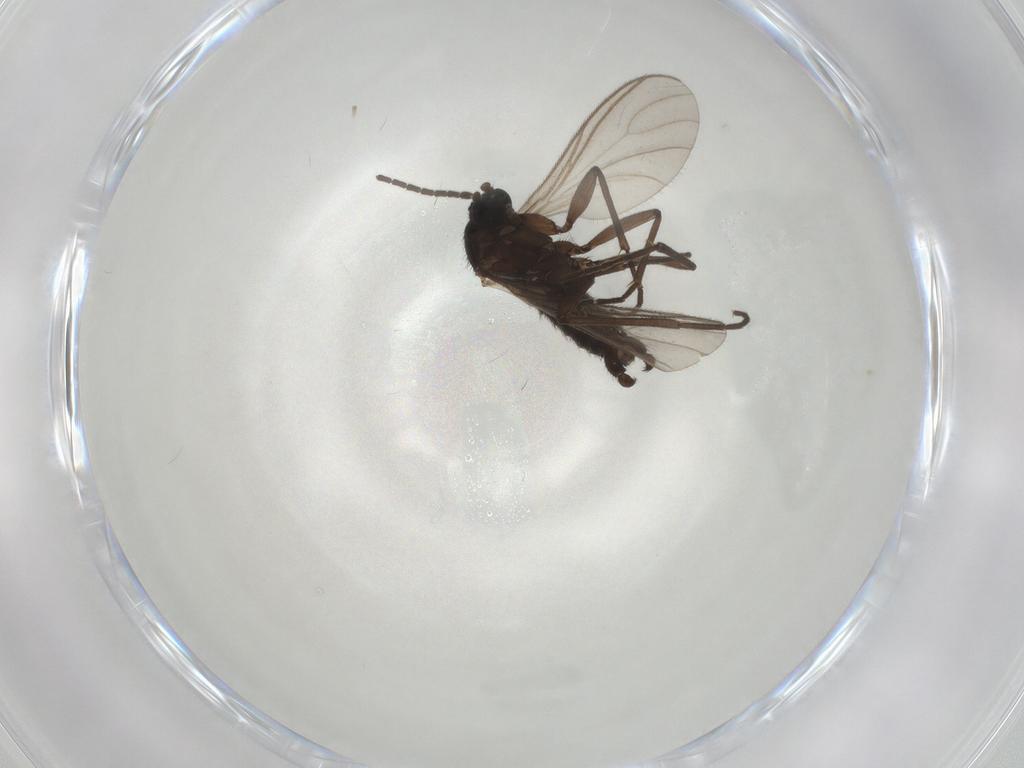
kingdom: Animalia
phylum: Arthropoda
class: Insecta
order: Diptera
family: Sciaridae
